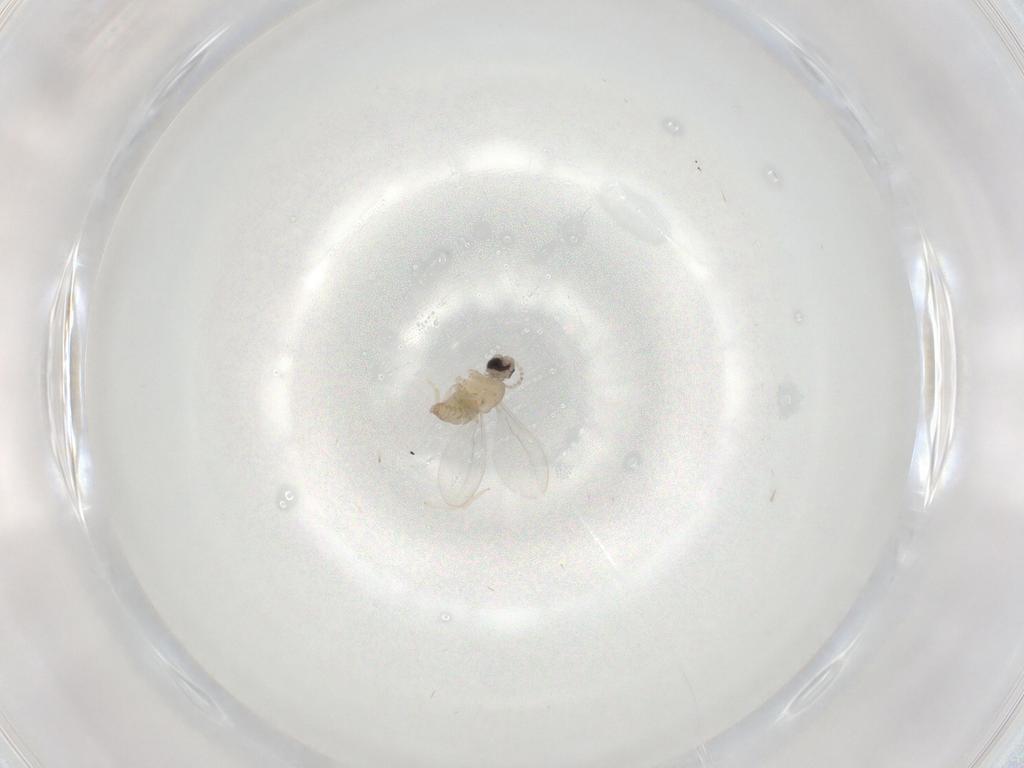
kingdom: Animalia
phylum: Arthropoda
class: Insecta
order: Diptera
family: Cecidomyiidae
